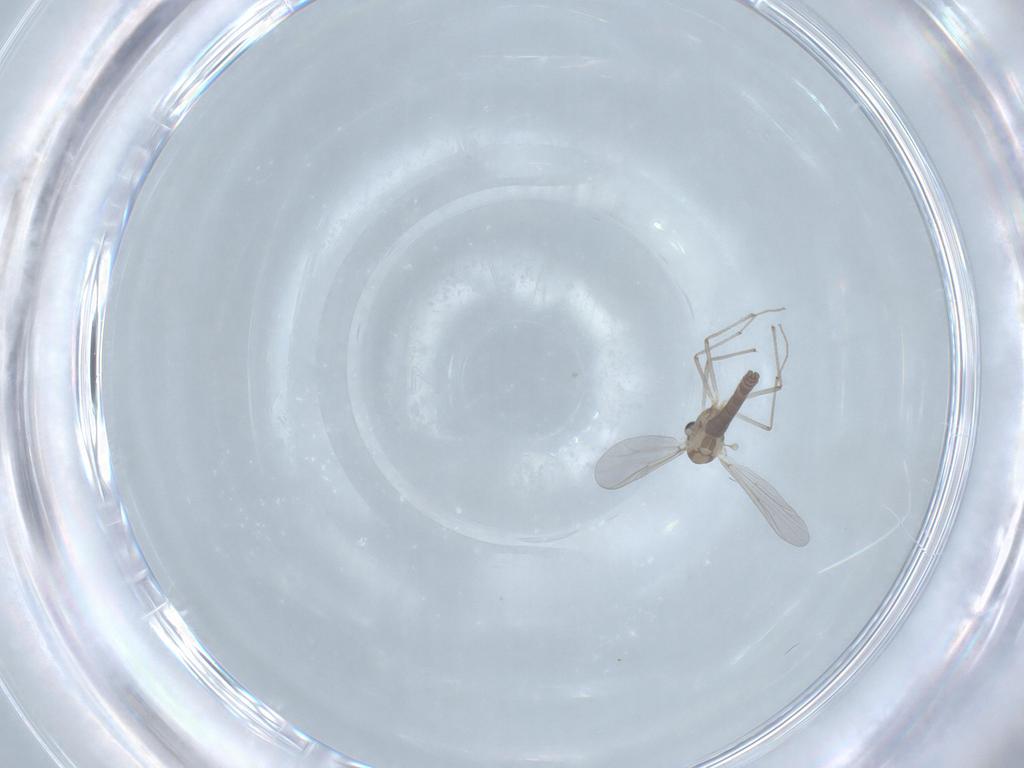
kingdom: Animalia
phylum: Arthropoda
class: Insecta
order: Diptera
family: Chironomidae
